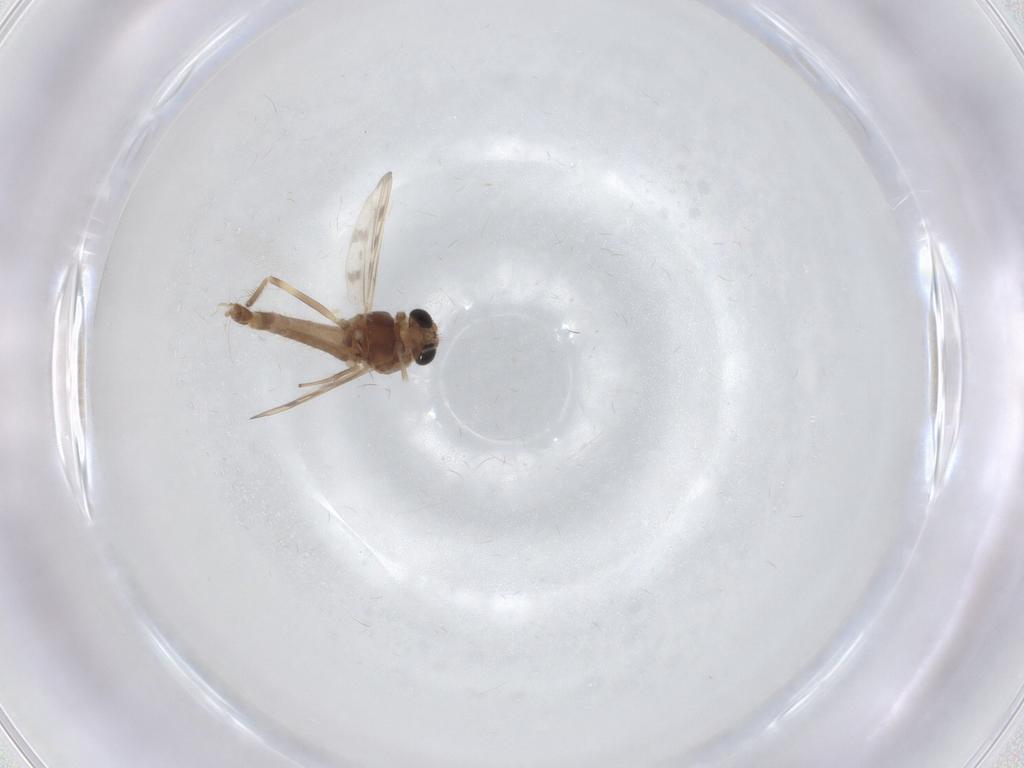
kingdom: Animalia
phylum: Arthropoda
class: Insecta
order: Diptera
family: Chironomidae
